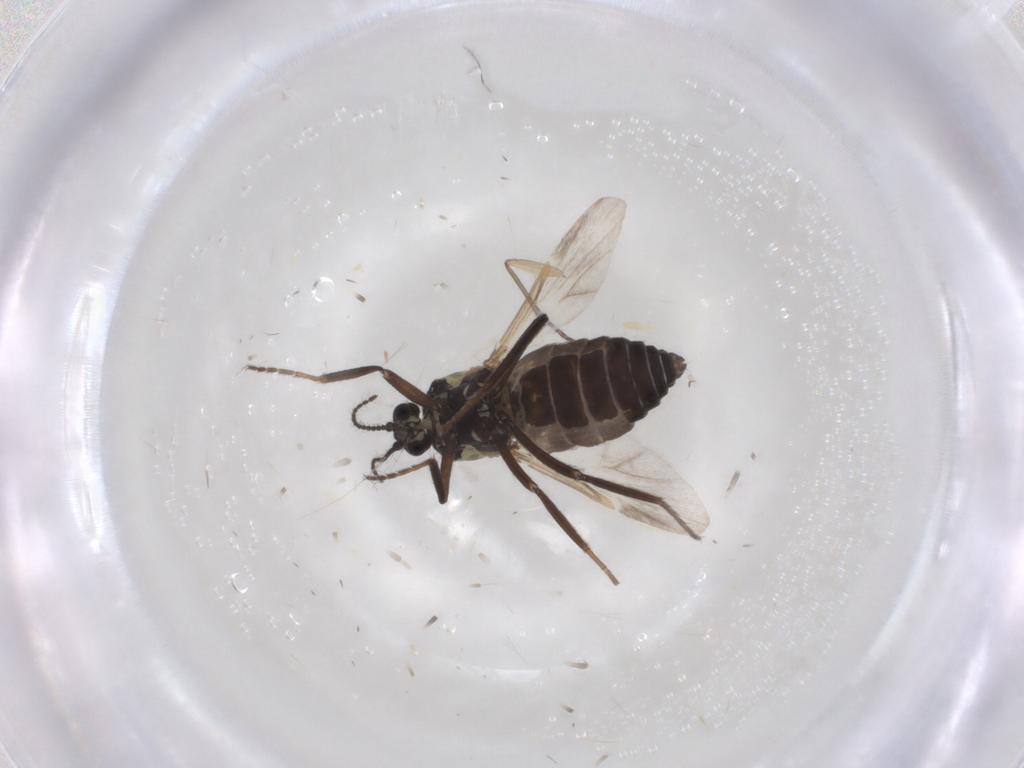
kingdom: Animalia
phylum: Arthropoda
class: Insecta
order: Diptera
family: Ceratopogonidae
